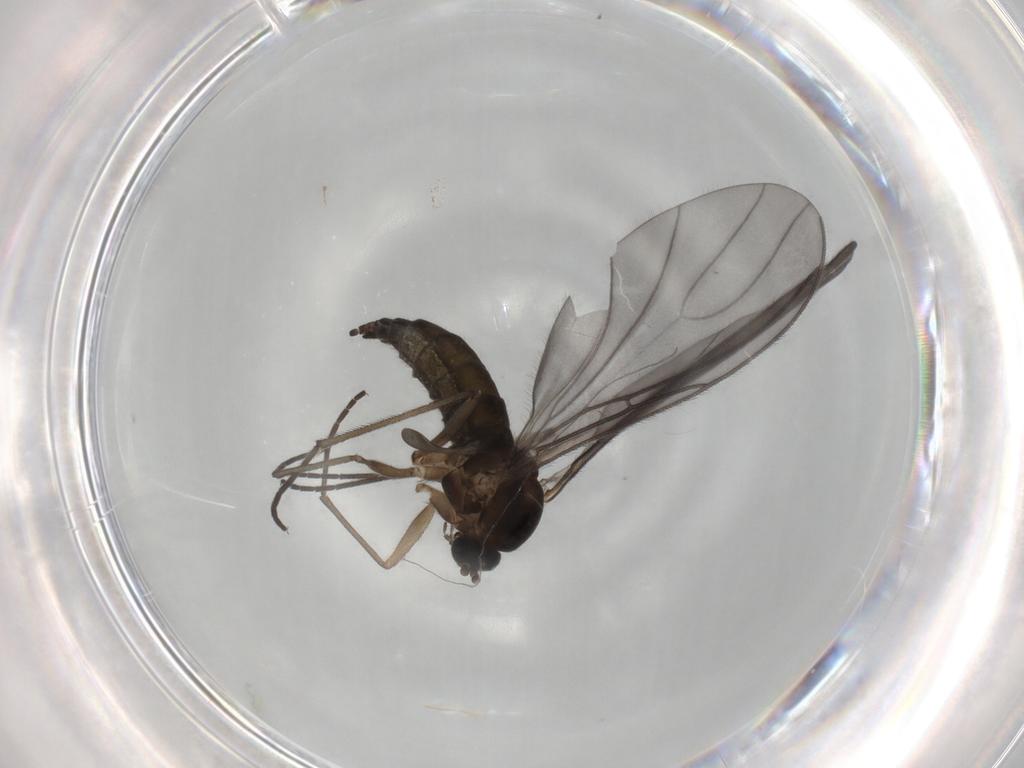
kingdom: Animalia
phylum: Arthropoda
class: Insecta
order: Diptera
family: Sciaridae
